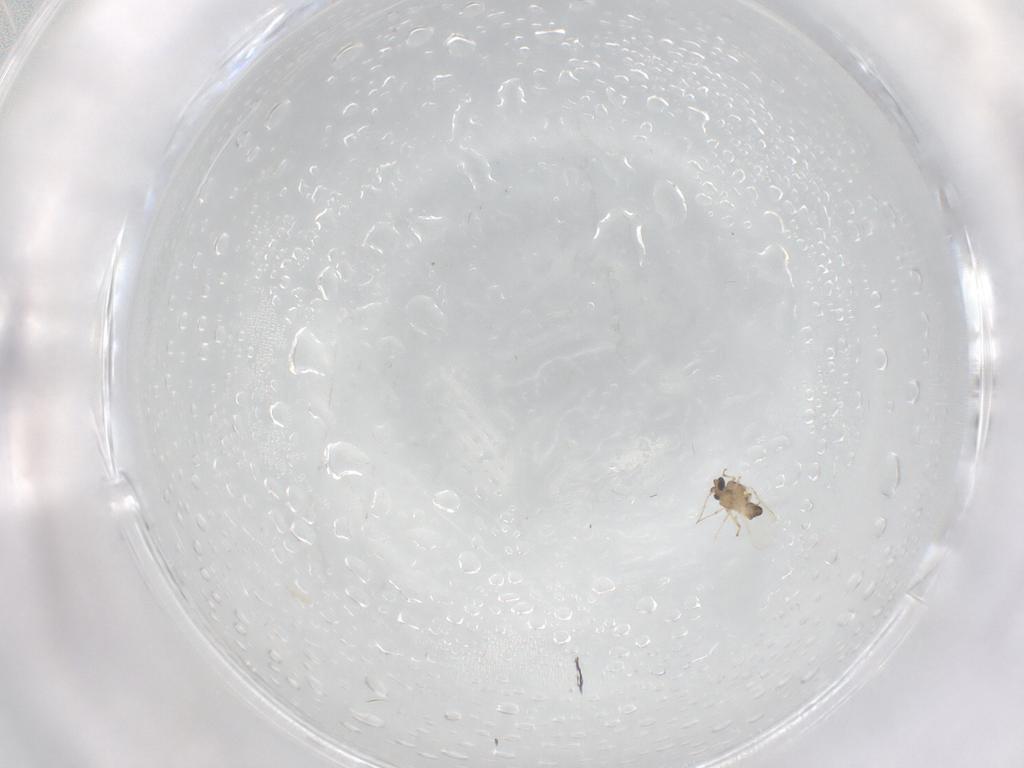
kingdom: Animalia
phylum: Arthropoda
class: Insecta
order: Diptera
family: Ceratopogonidae
